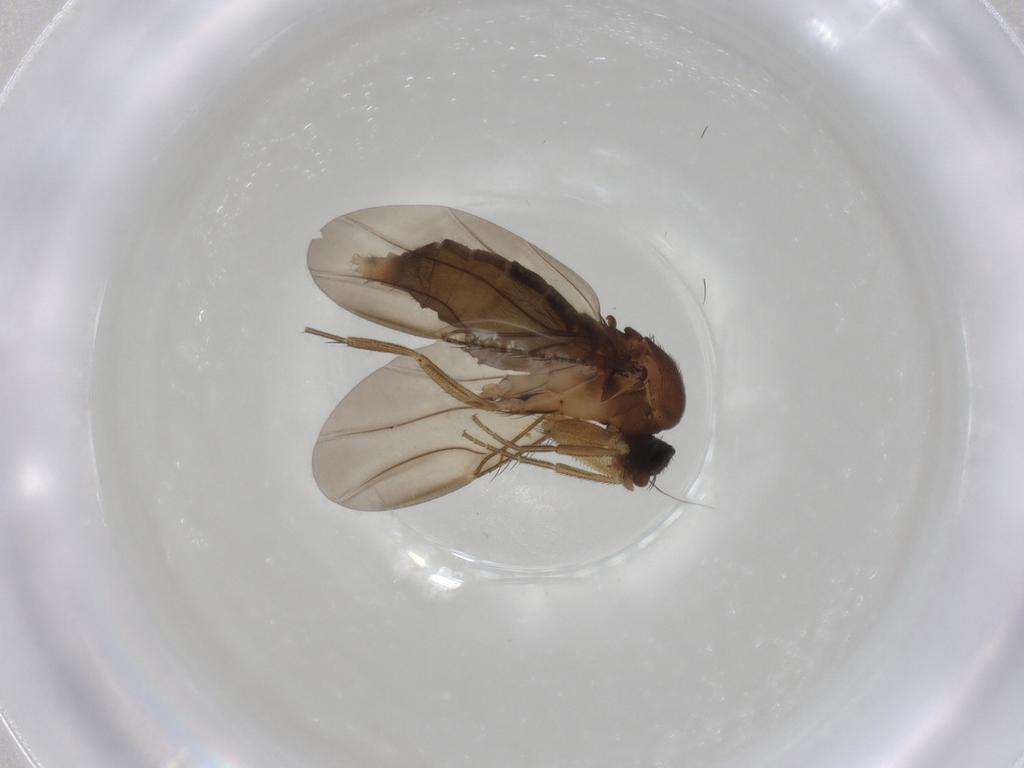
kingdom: Animalia
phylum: Arthropoda
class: Insecta
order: Diptera
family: Phoridae
